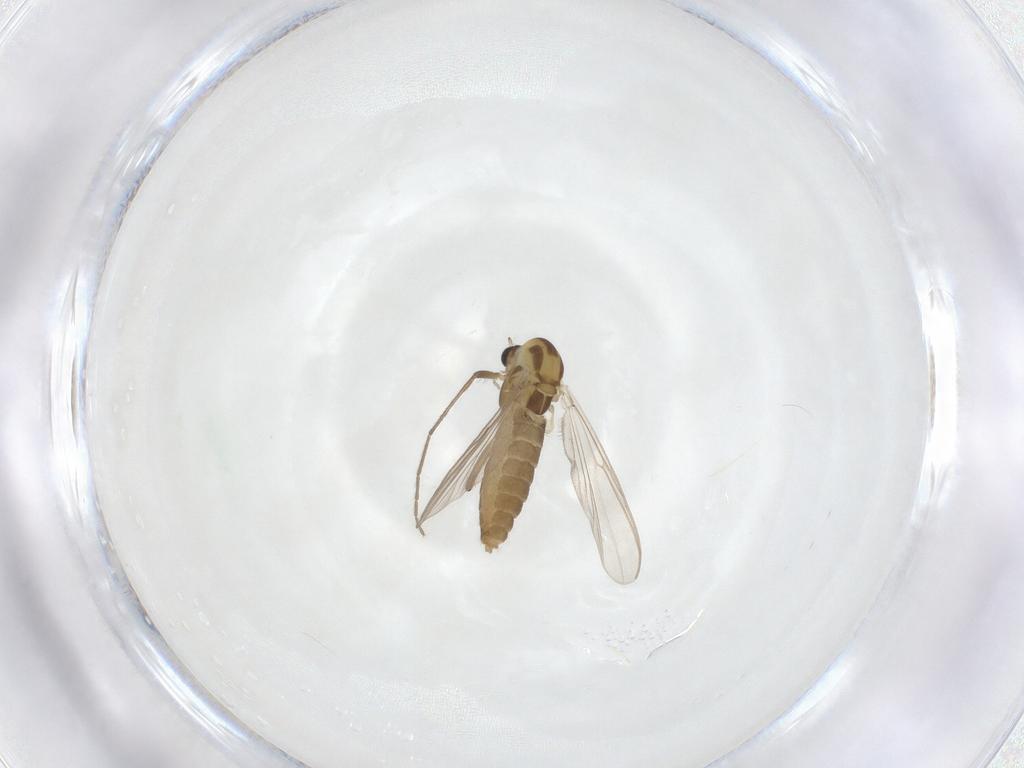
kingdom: Animalia
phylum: Arthropoda
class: Insecta
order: Diptera
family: Chironomidae
